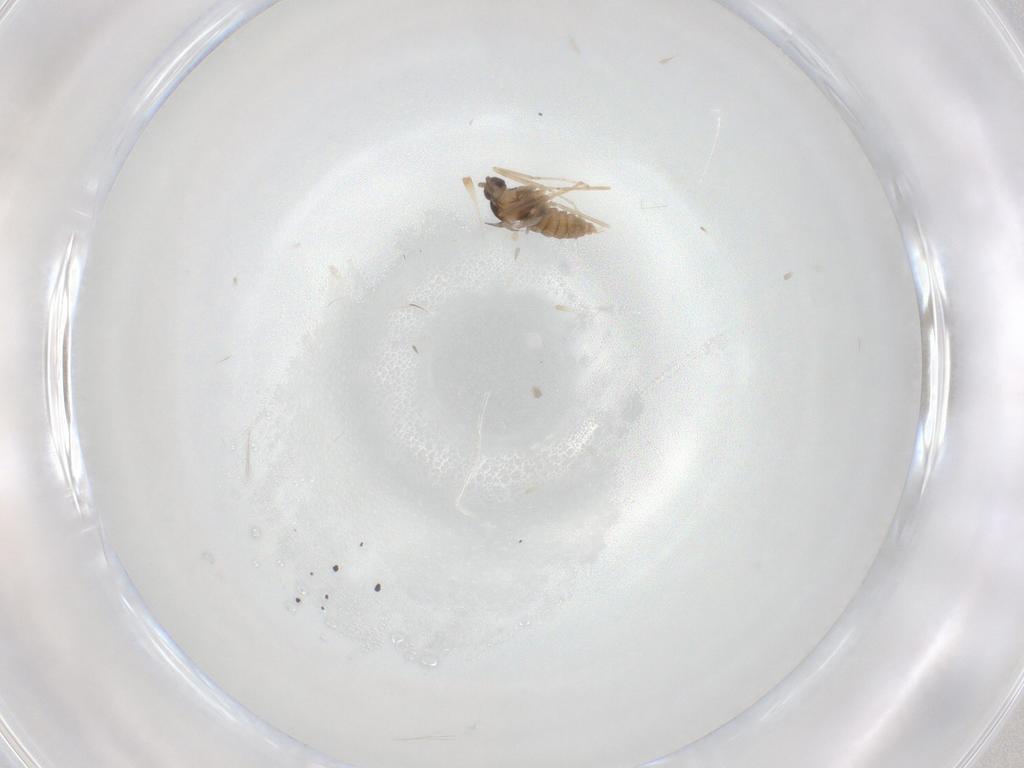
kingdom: Animalia
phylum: Arthropoda
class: Insecta
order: Diptera
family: Cecidomyiidae
